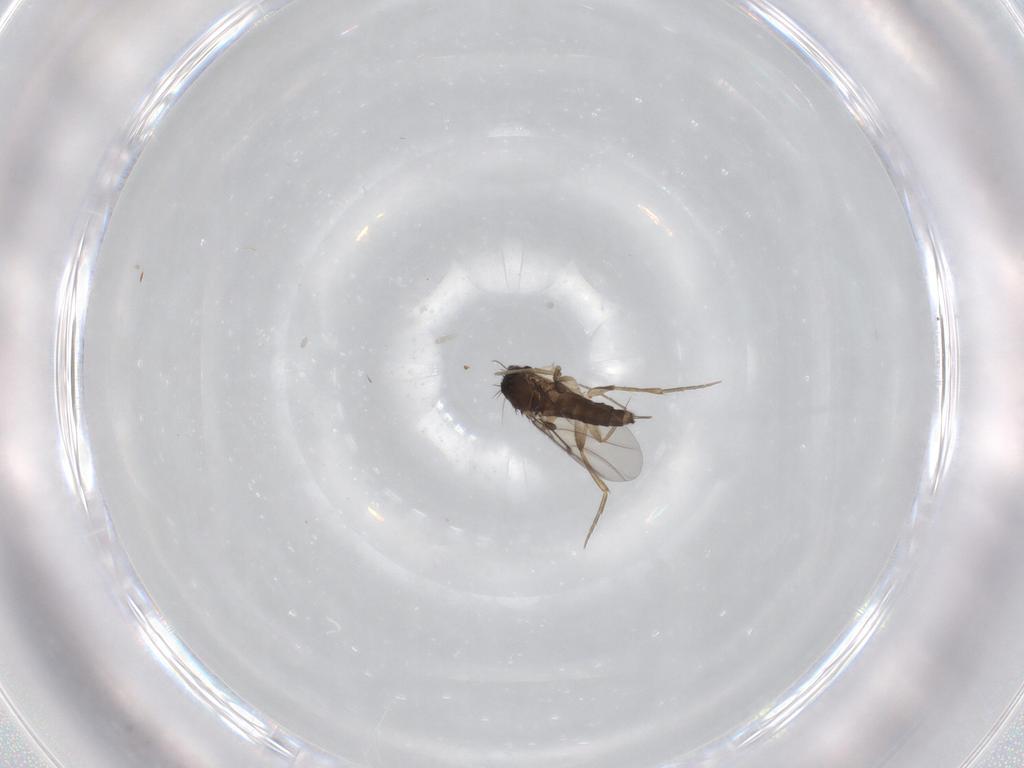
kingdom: Animalia
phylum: Arthropoda
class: Insecta
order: Diptera
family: Phoridae
